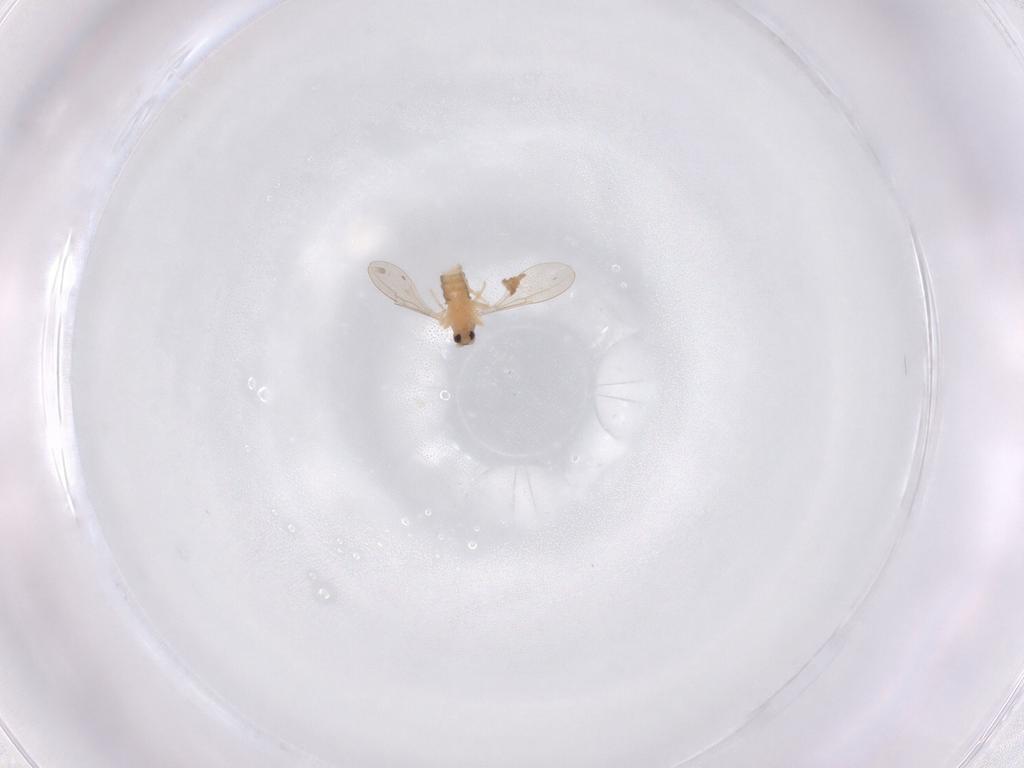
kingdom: Animalia
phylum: Arthropoda
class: Insecta
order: Diptera
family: Cecidomyiidae
